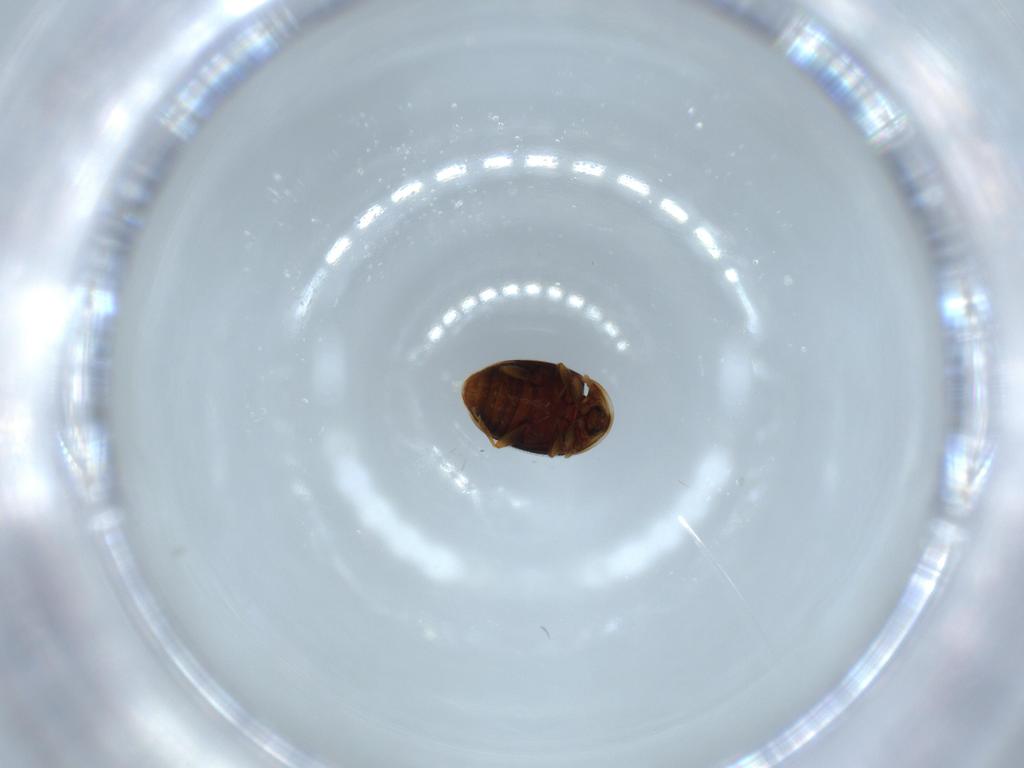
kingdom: Animalia
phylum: Arthropoda
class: Insecta
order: Coleoptera
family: Corylophidae
